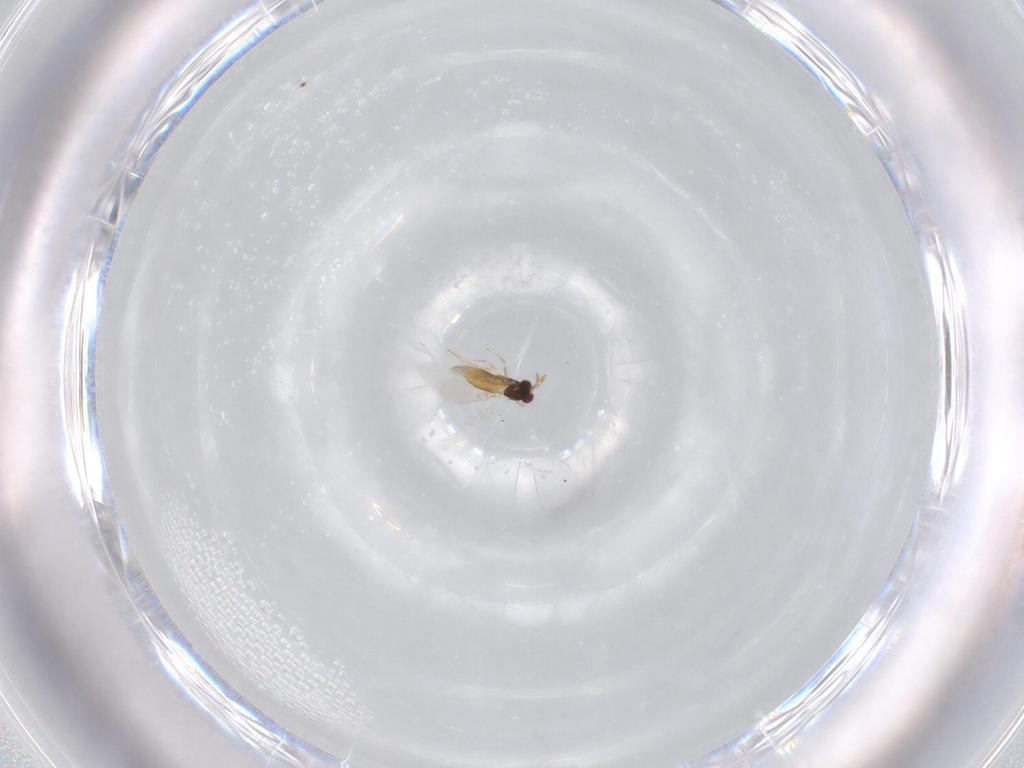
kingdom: Animalia
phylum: Arthropoda
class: Insecta
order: Hymenoptera
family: Trichogrammatidae
